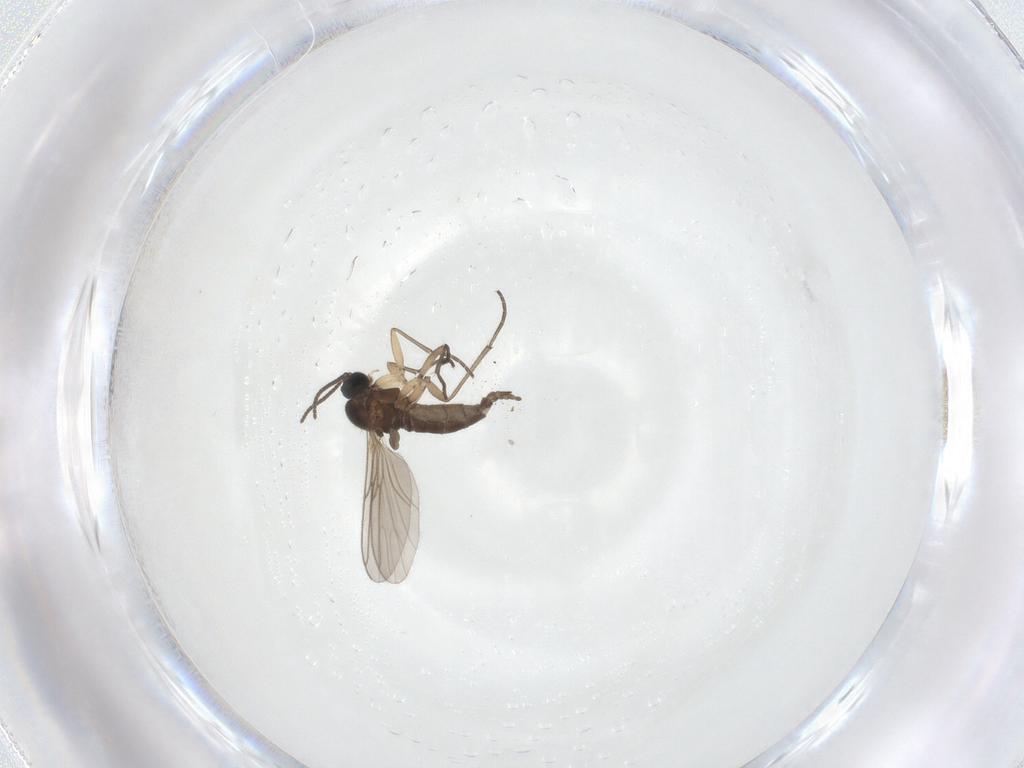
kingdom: Animalia
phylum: Arthropoda
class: Insecta
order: Diptera
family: Sciaridae
